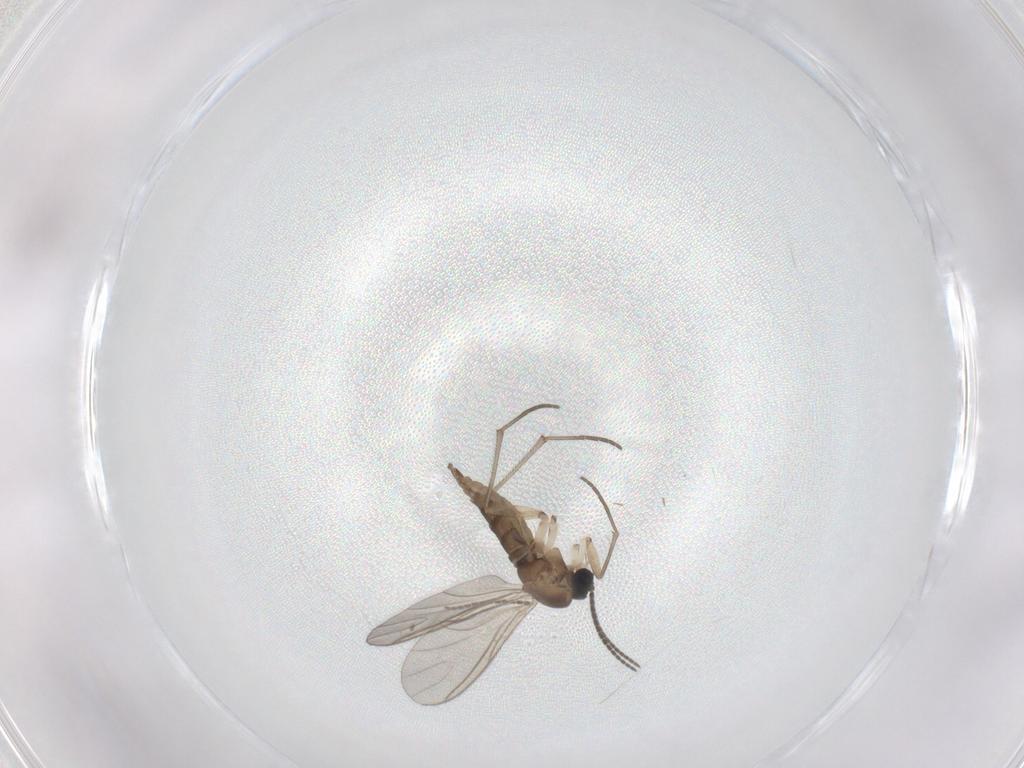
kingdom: Animalia
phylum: Arthropoda
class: Insecta
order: Diptera
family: Sciaridae
